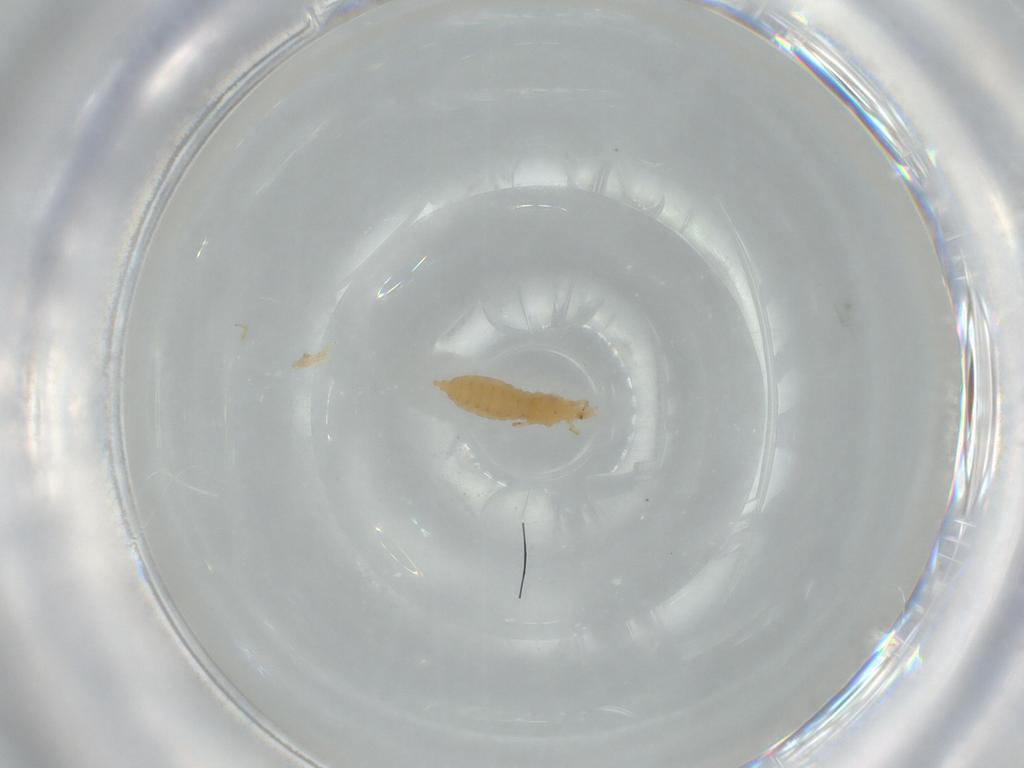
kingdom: Animalia
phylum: Arthropoda
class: Insecta
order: Thysanoptera
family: Thripidae
